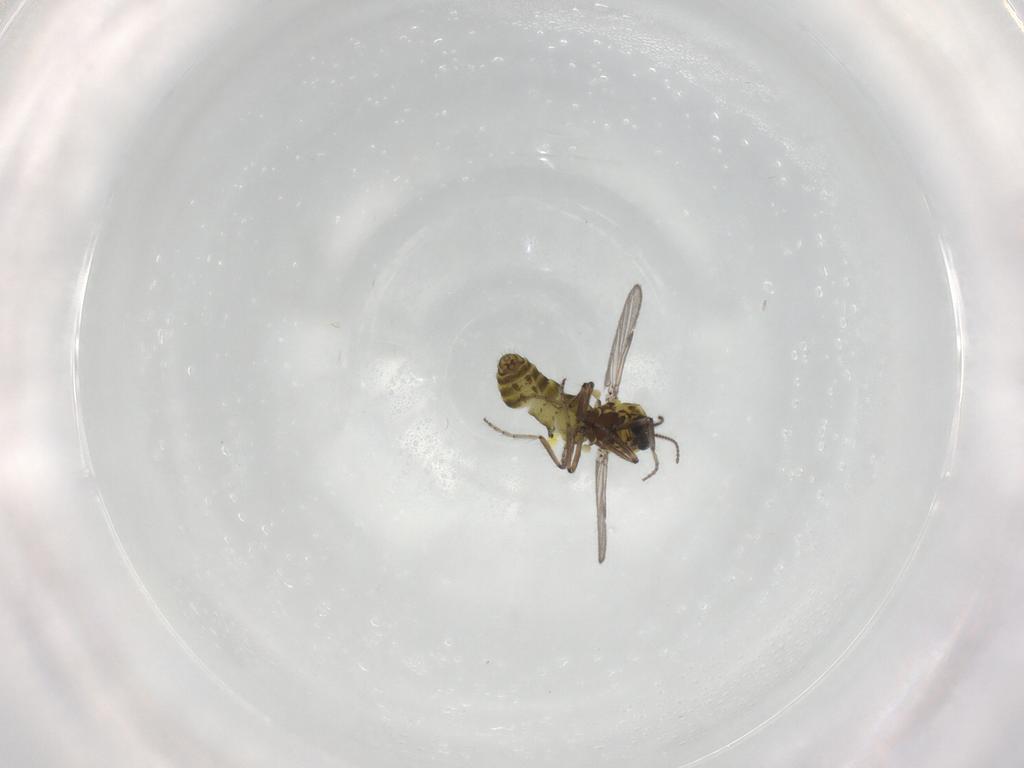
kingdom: Animalia
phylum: Arthropoda
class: Insecta
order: Diptera
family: Ceratopogonidae
